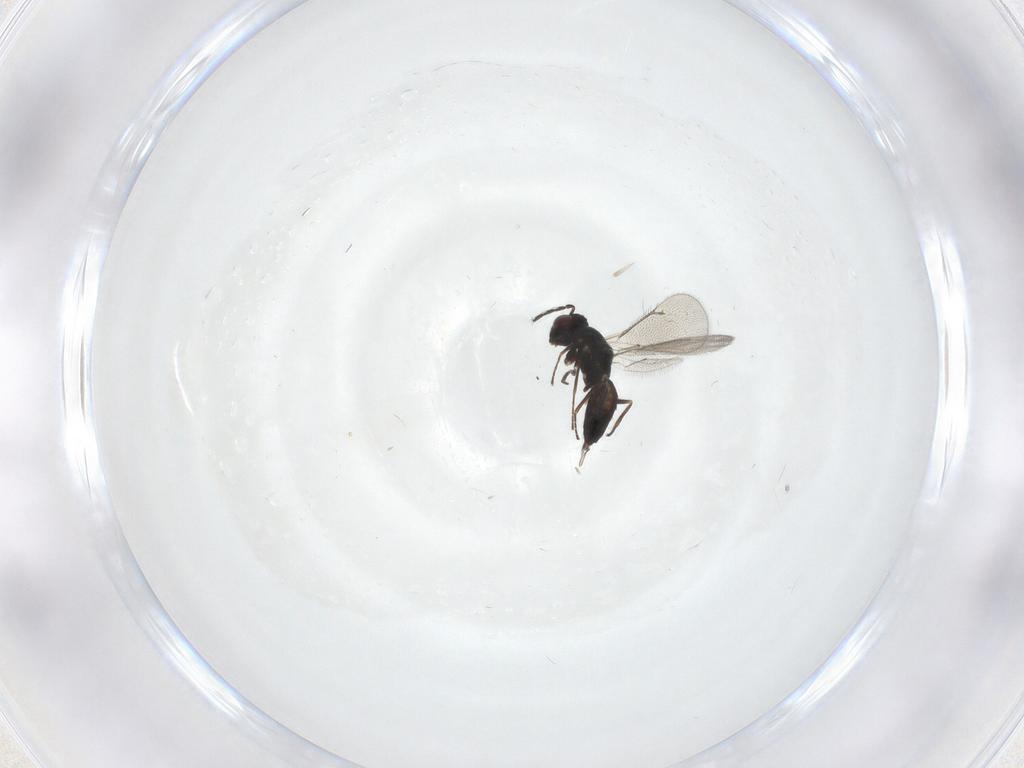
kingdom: Animalia
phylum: Arthropoda
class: Insecta
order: Hymenoptera
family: Eulophidae
